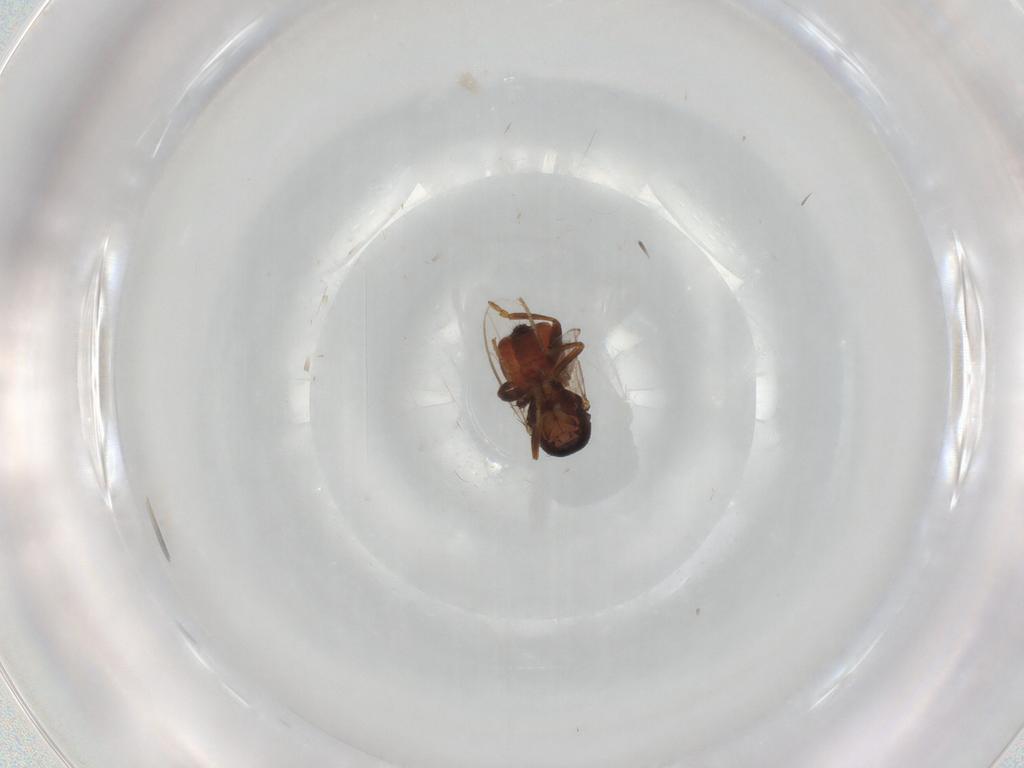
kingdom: Animalia
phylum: Arthropoda
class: Insecta
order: Diptera
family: Sphaeroceridae
